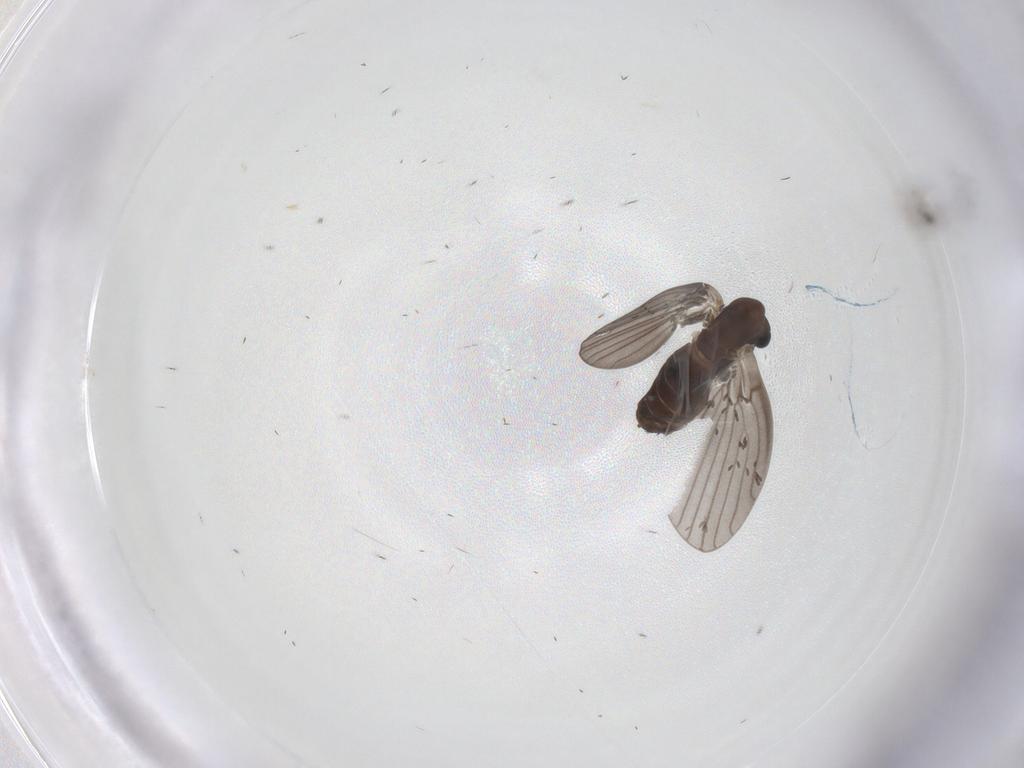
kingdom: Animalia
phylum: Arthropoda
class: Insecta
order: Diptera
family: Psychodidae
